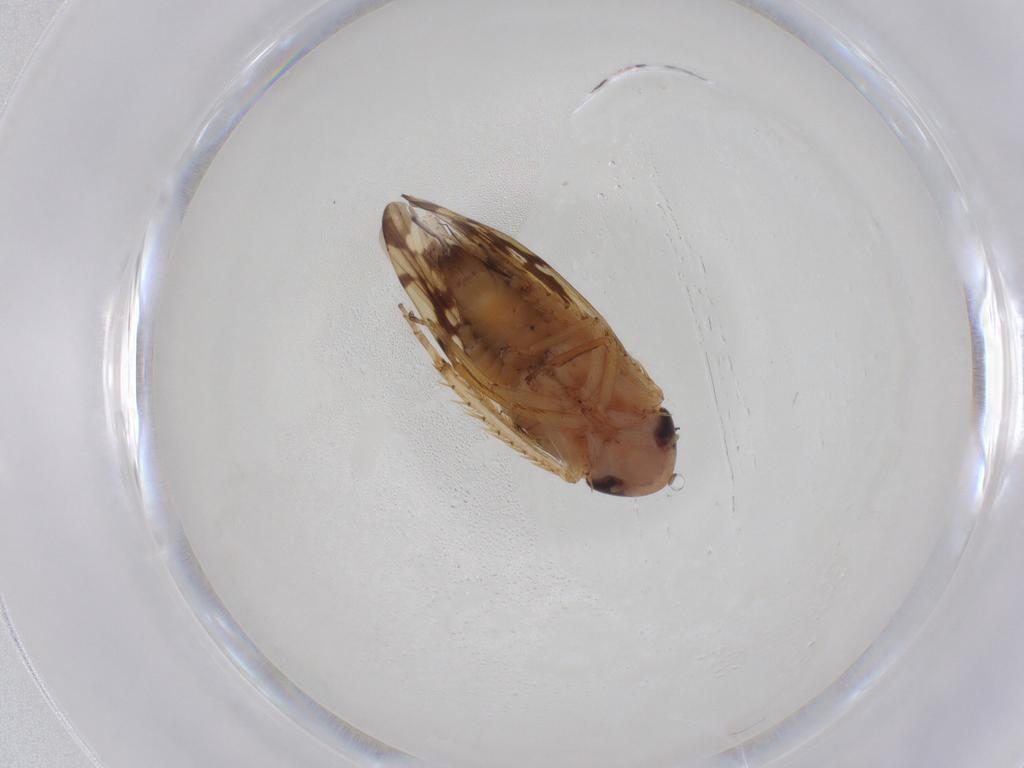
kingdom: Animalia
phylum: Arthropoda
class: Insecta
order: Hemiptera
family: Cicadellidae
